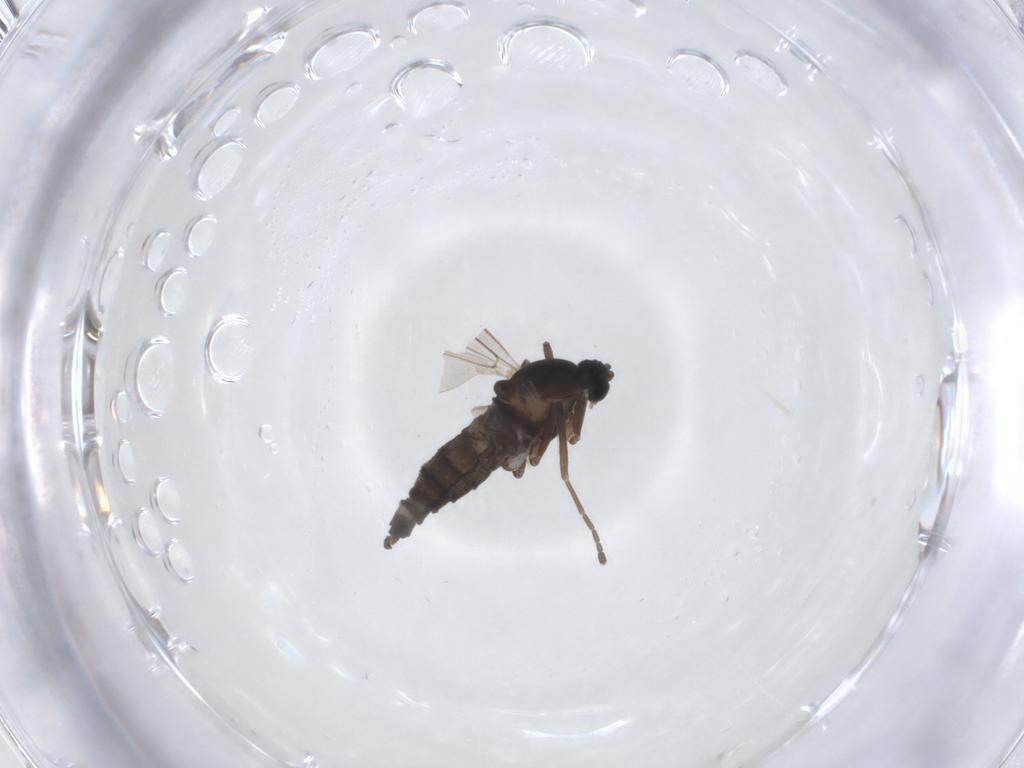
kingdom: Animalia
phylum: Arthropoda
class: Insecta
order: Diptera
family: Cecidomyiidae
